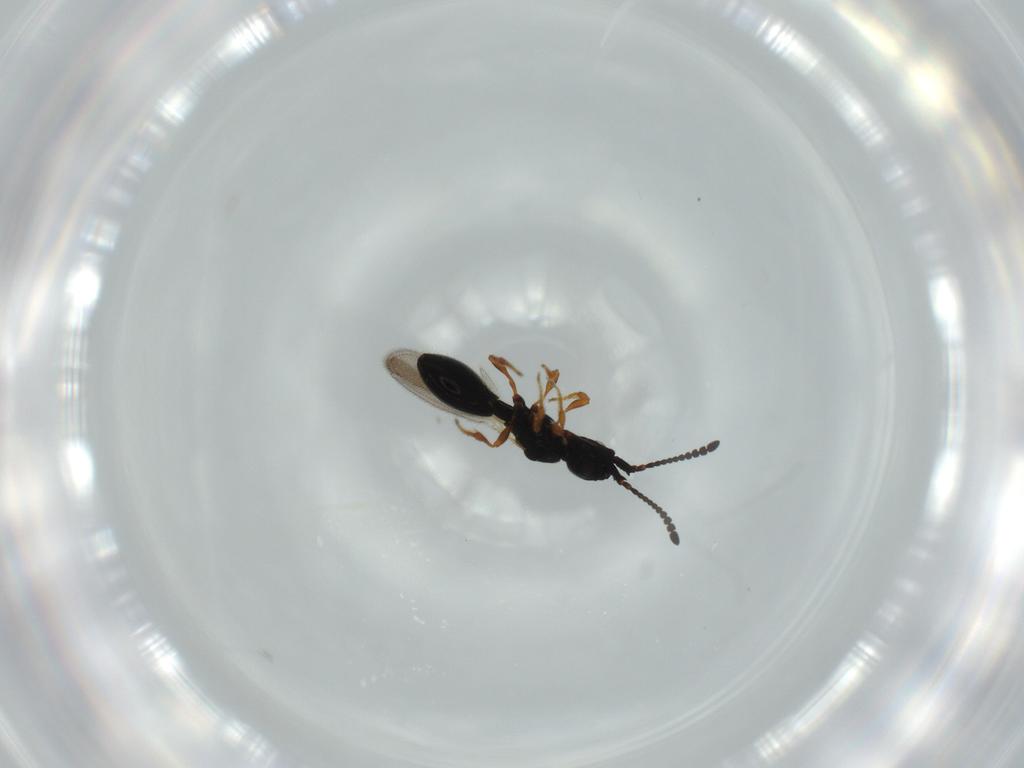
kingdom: Animalia
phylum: Arthropoda
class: Insecta
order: Hymenoptera
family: Diapriidae
